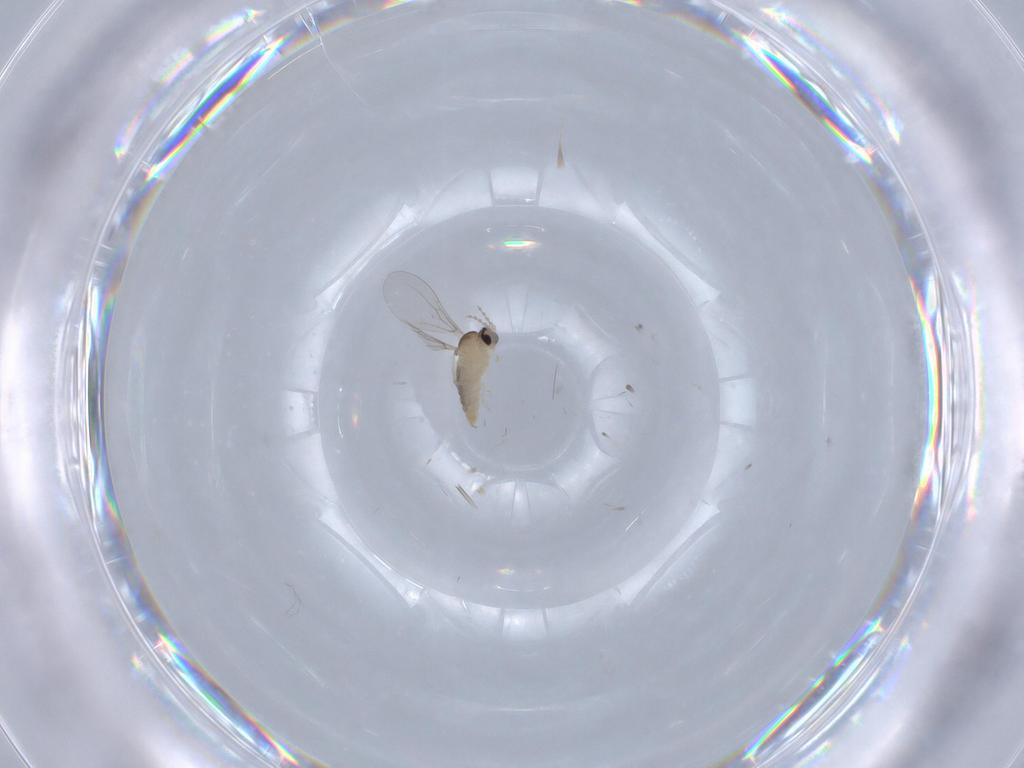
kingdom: Animalia
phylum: Arthropoda
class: Insecta
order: Diptera
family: Cecidomyiidae
